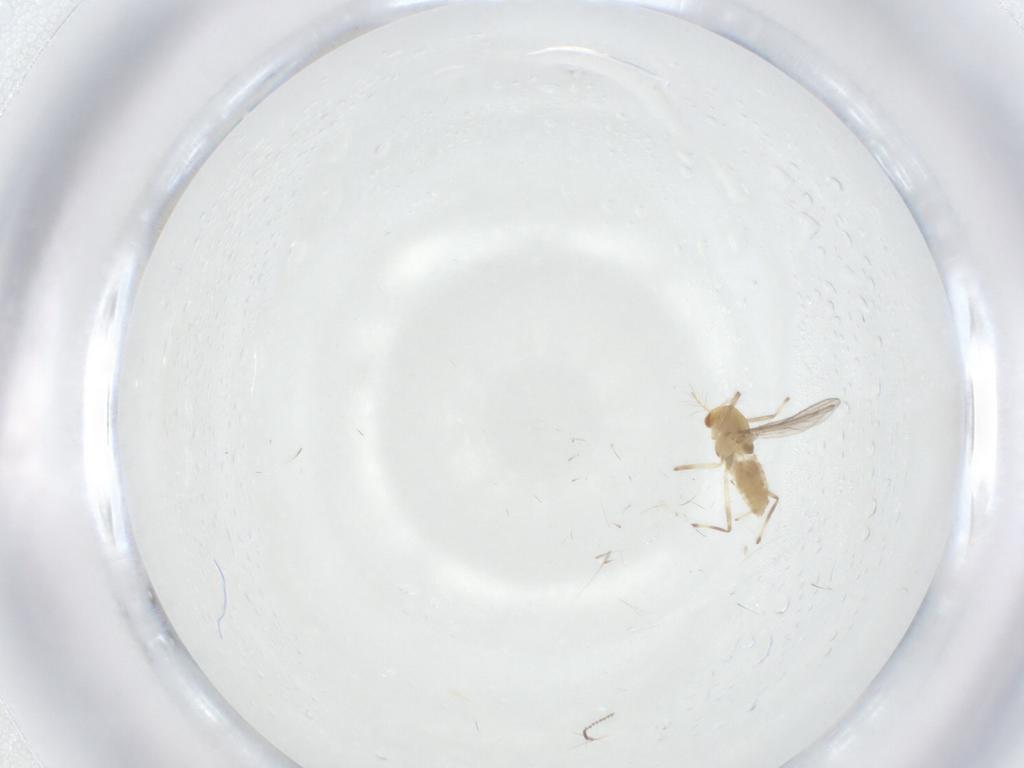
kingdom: Animalia
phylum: Arthropoda
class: Insecta
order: Diptera
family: Chironomidae
